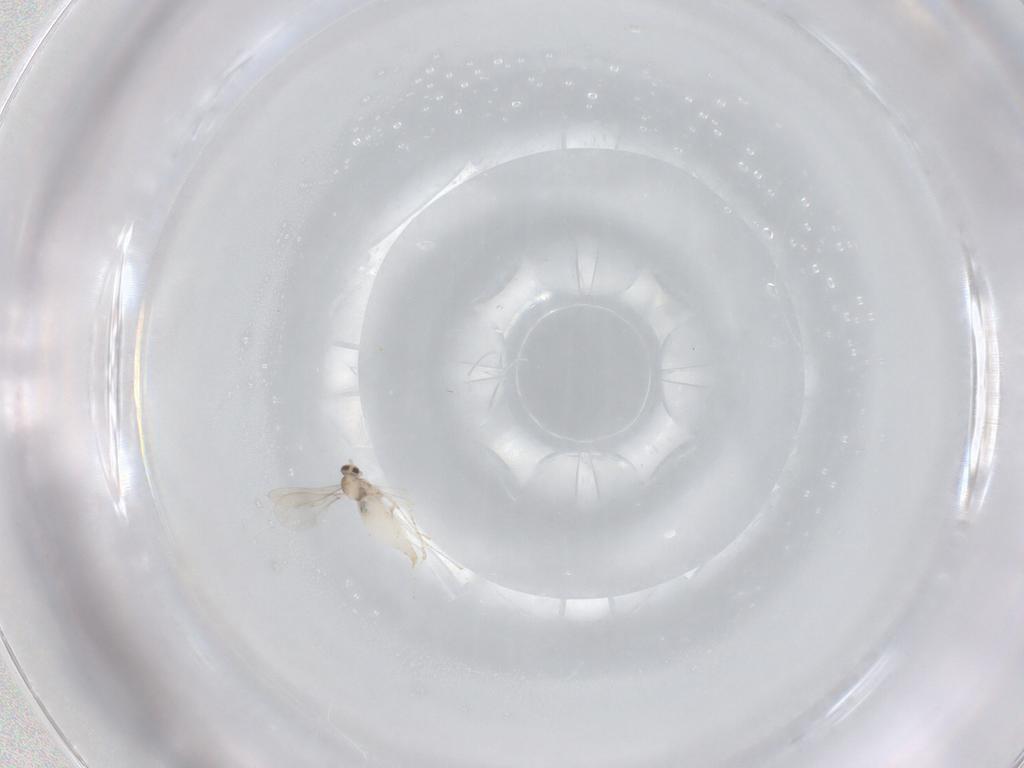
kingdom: Animalia
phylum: Arthropoda
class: Insecta
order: Diptera
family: Cecidomyiidae
